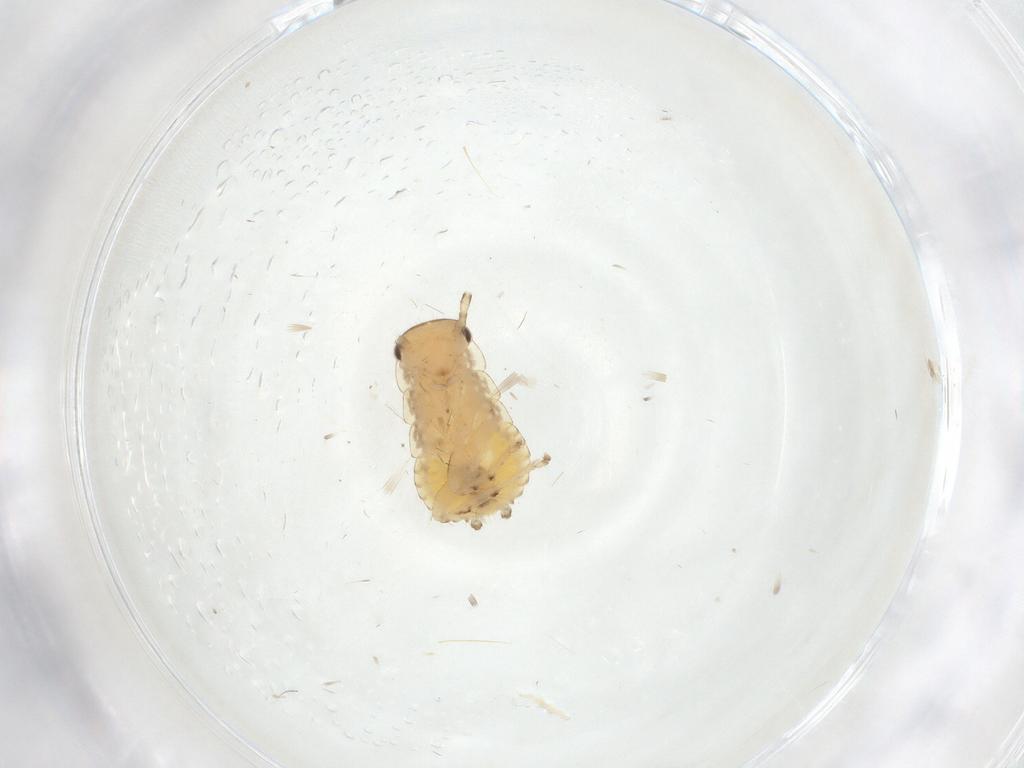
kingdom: Animalia
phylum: Arthropoda
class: Insecta
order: Blattodea
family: Ectobiidae
